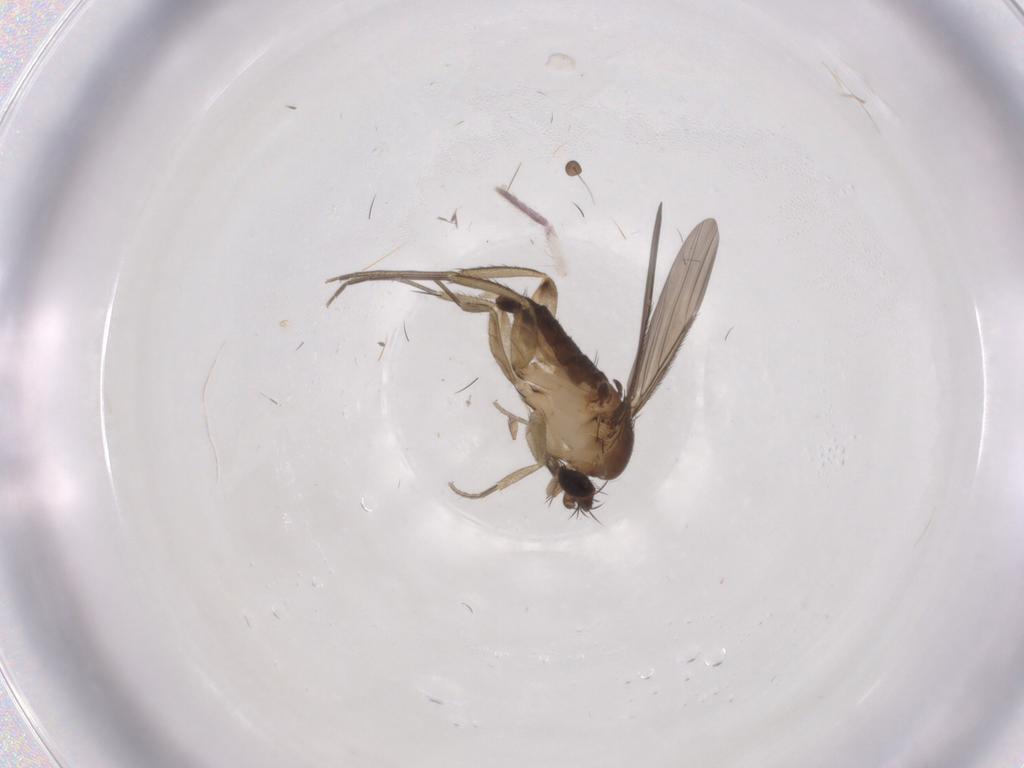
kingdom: Animalia
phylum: Arthropoda
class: Insecta
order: Diptera
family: Phoridae
